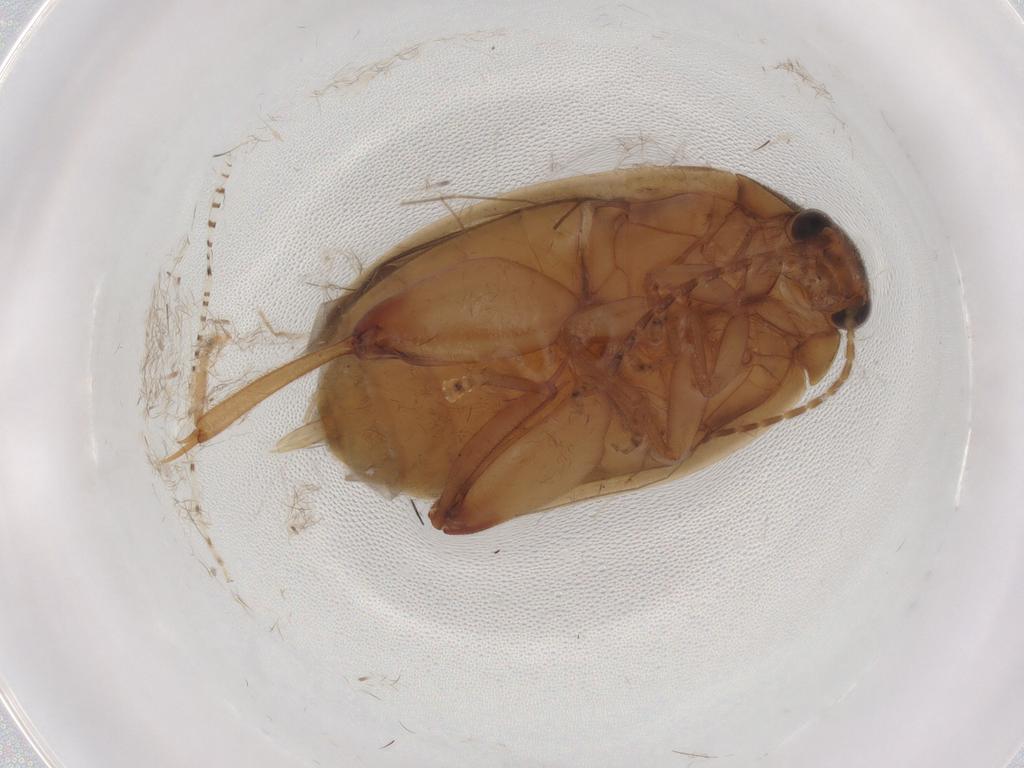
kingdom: Animalia
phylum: Arthropoda
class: Insecta
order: Coleoptera
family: Scirtidae
